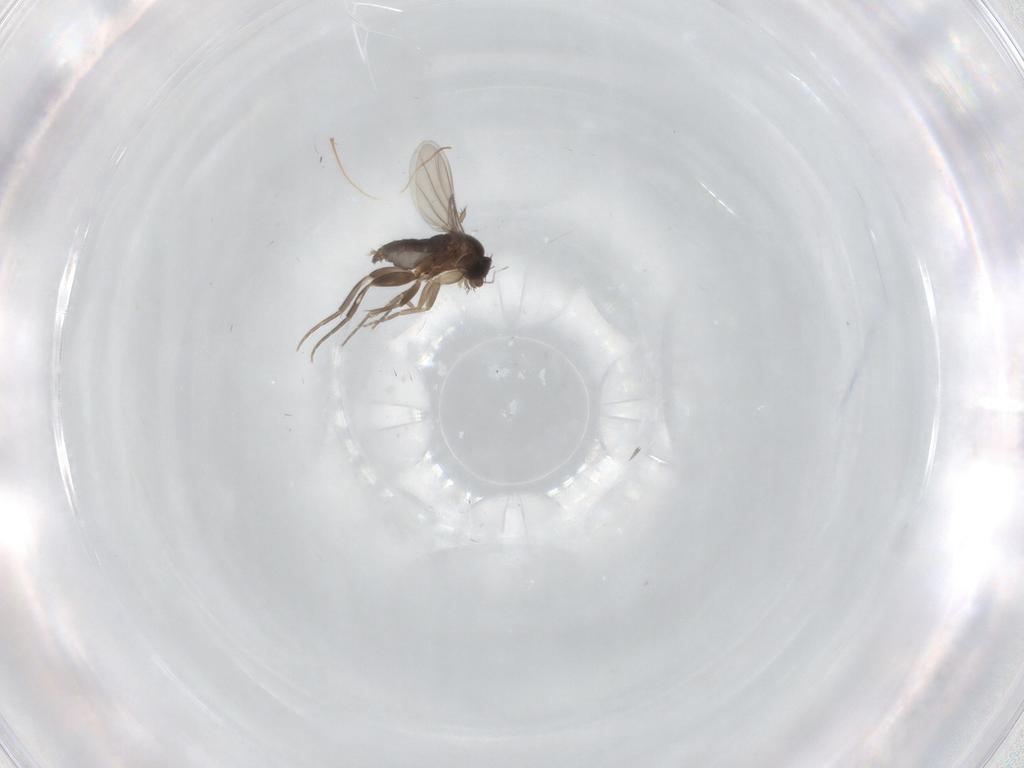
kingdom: Animalia
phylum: Arthropoda
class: Insecta
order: Diptera
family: Phoridae
